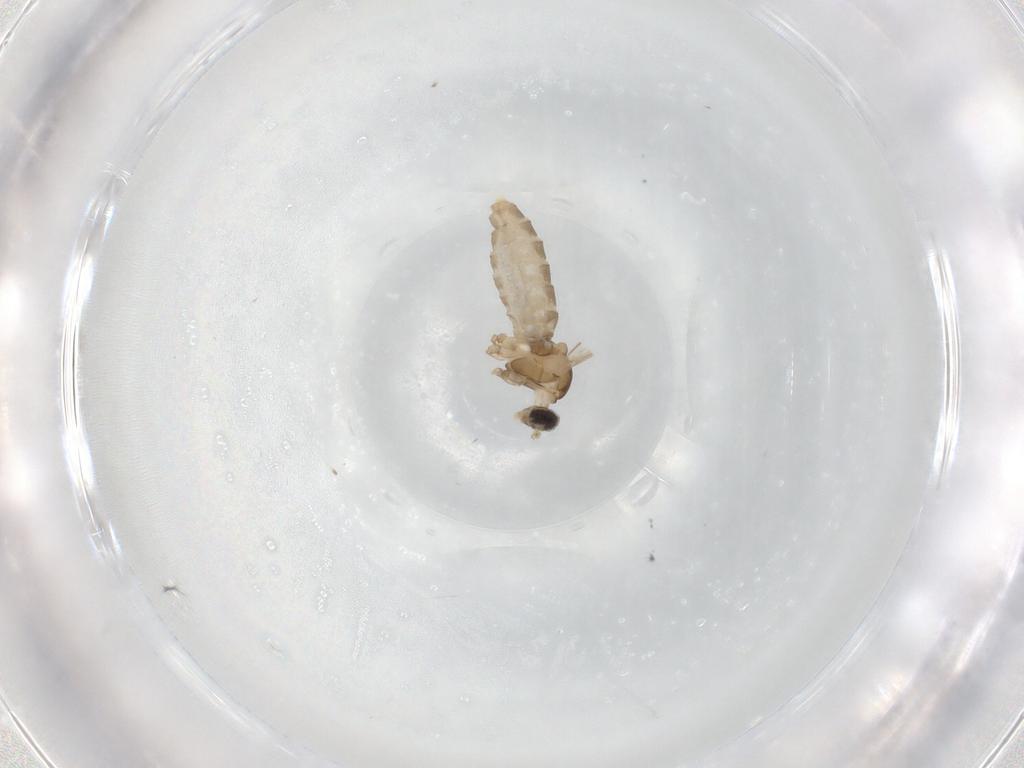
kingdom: Animalia
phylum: Arthropoda
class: Insecta
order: Diptera
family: Cecidomyiidae
